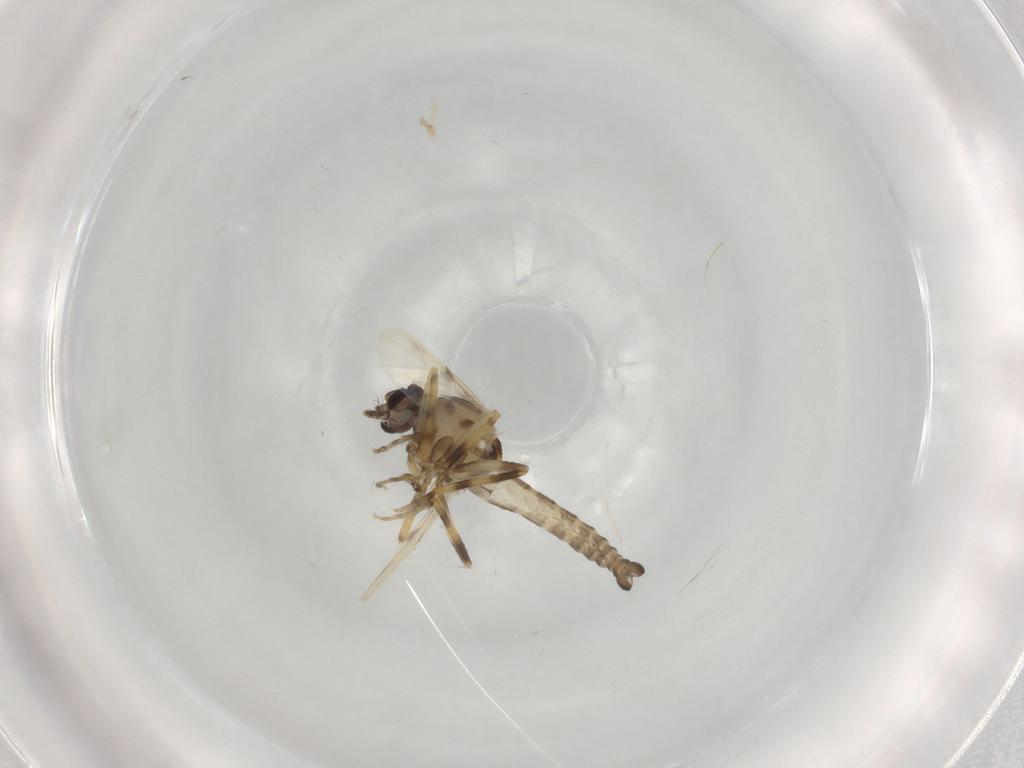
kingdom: Animalia
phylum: Arthropoda
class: Insecta
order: Diptera
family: Ceratopogonidae
